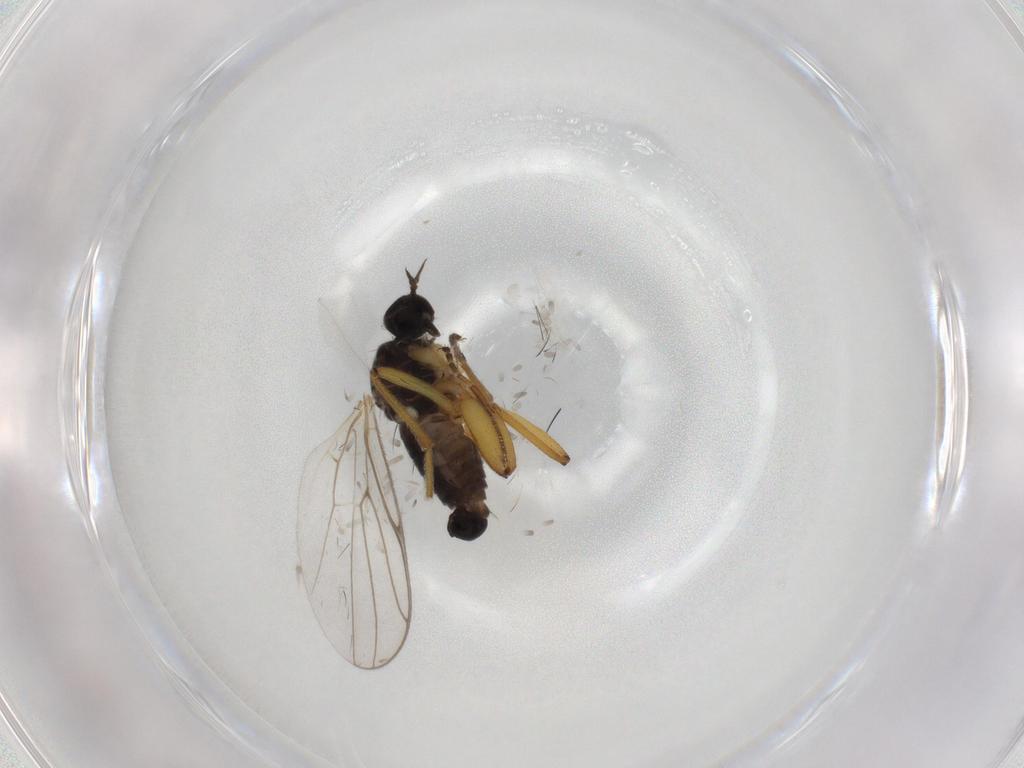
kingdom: Animalia
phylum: Arthropoda
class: Insecta
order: Diptera
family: Hybotidae
